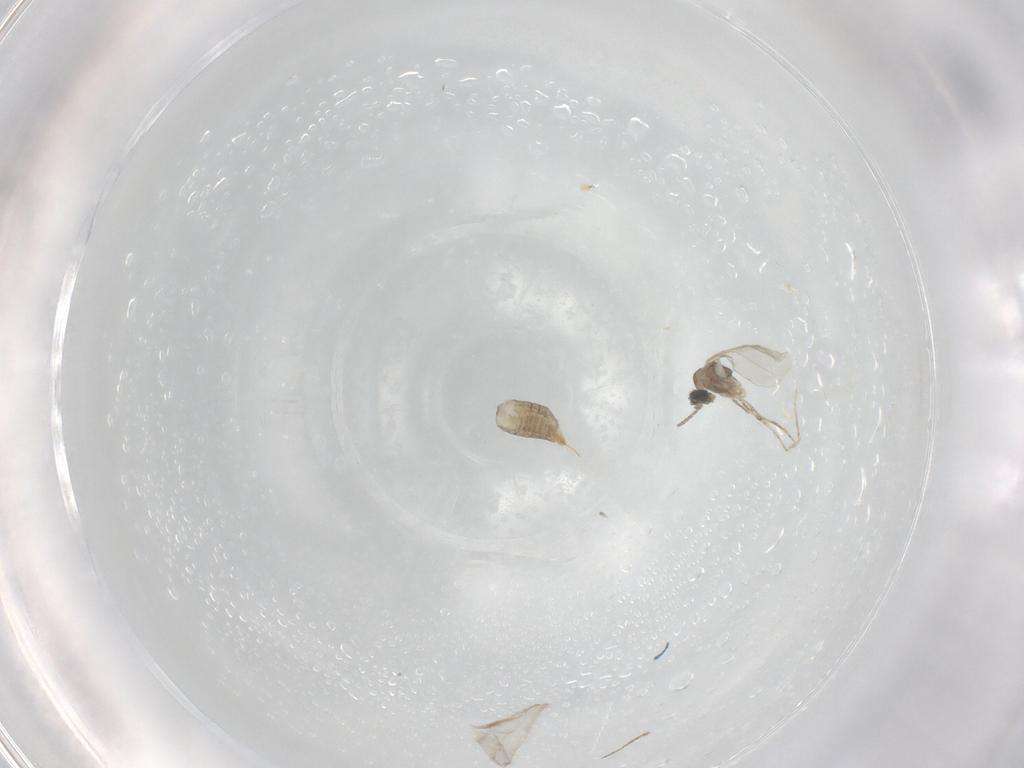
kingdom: Animalia
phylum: Arthropoda
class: Insecta
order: Diptera
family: Cecidomyiidae
